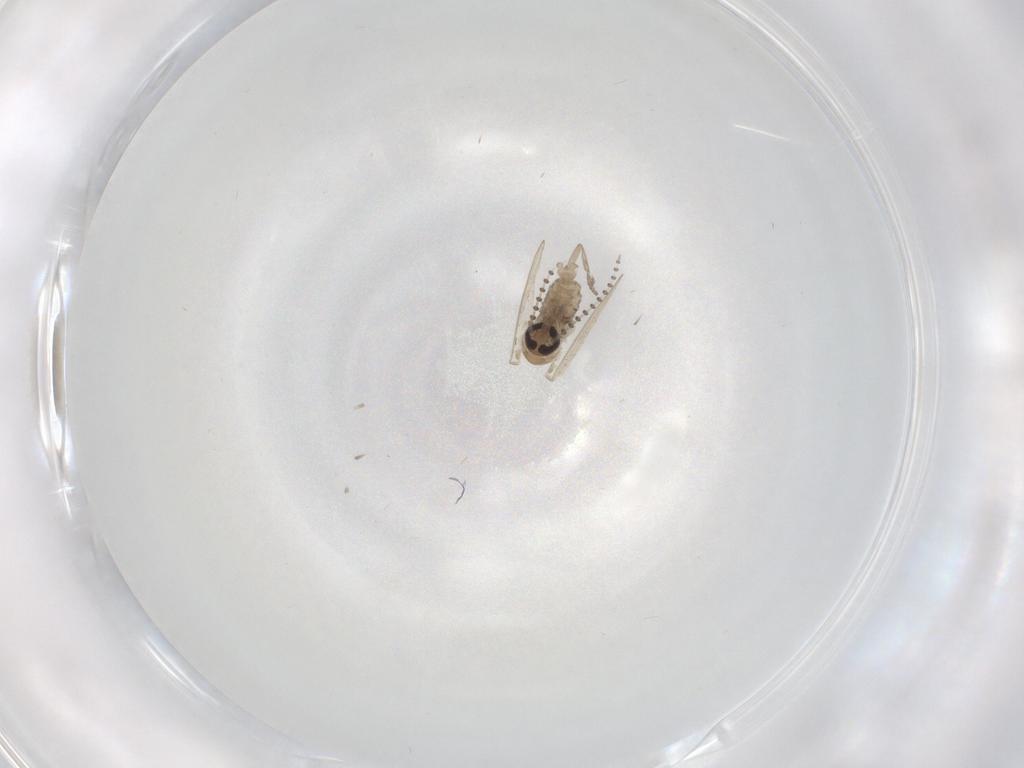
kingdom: Animalia
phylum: Arthropoda
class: Insecta
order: Diptera
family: Psychodidae
